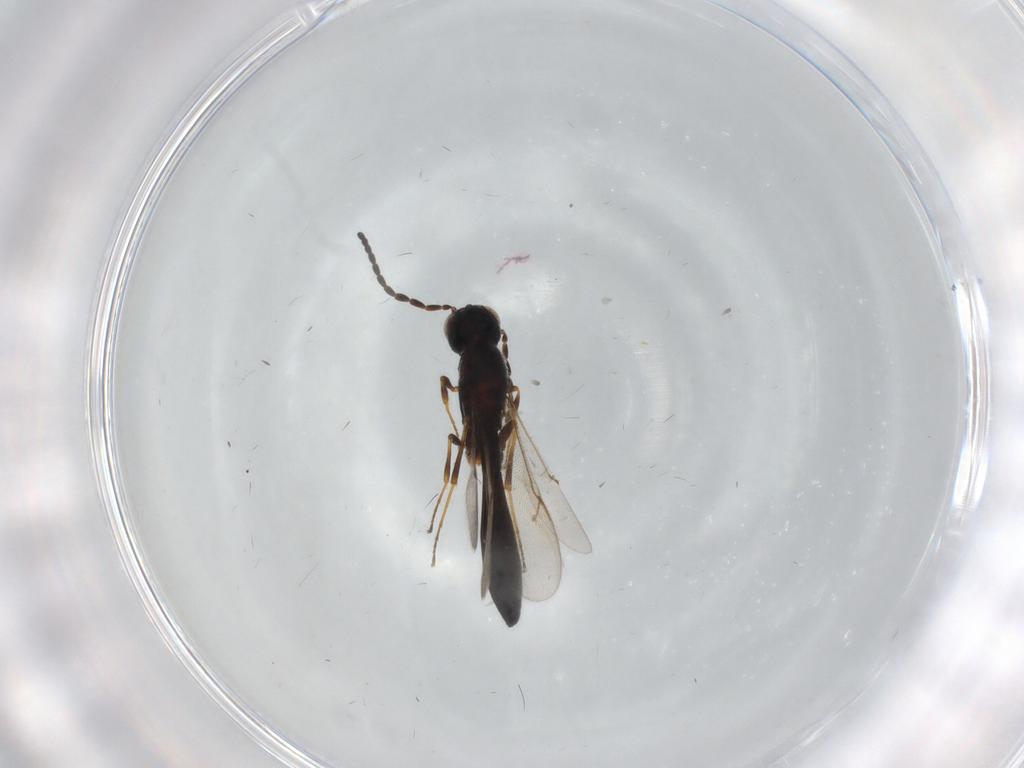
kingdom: Animalia
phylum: Arthropoda
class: Insecta
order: Hymenoptera
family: Scelionidae
